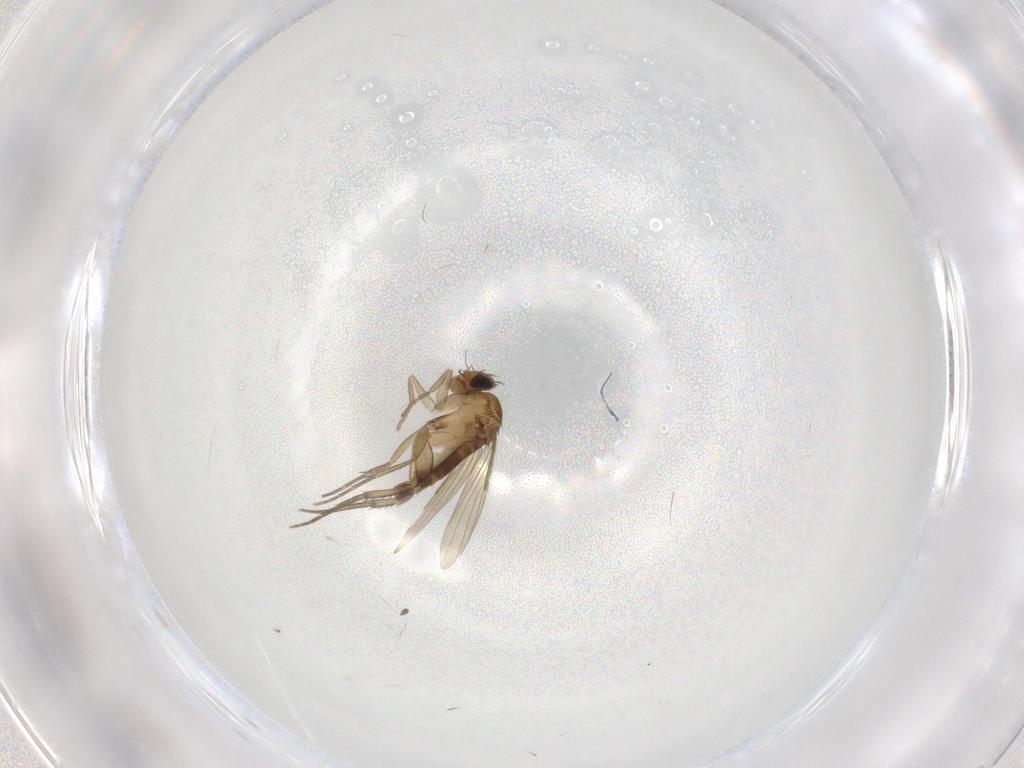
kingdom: Animalia
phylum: Arthropoda
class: Insecta
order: Diptera
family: Phoridae
